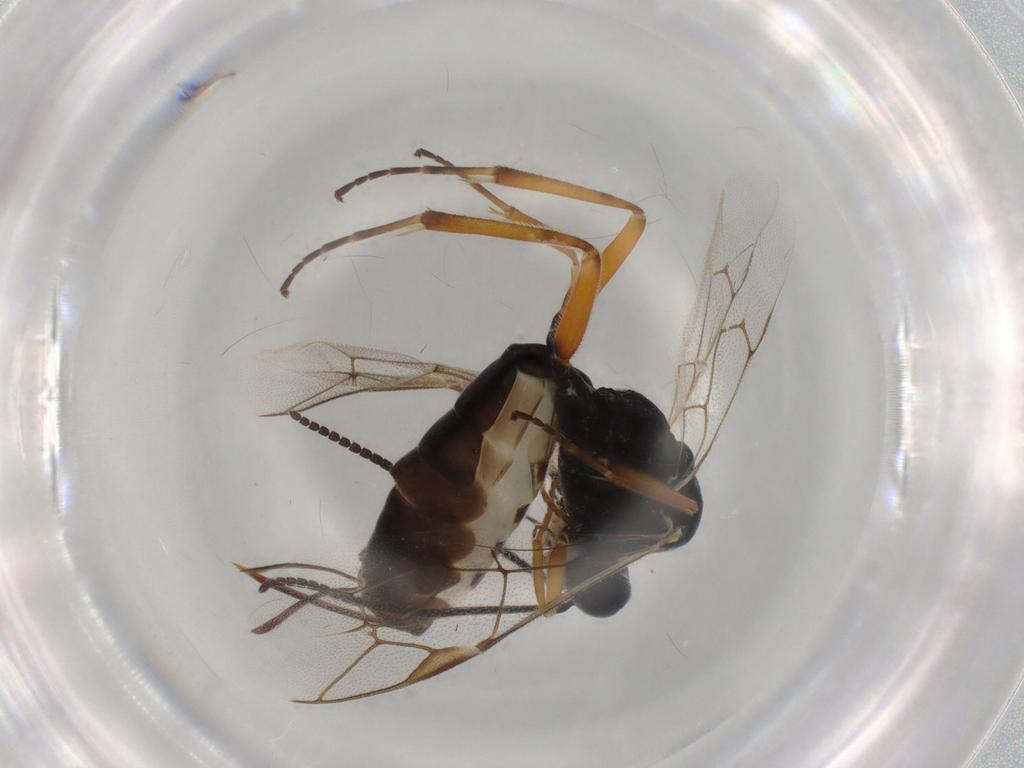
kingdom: Animalia
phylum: Arthropoda
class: Insecta
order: Hymenoptera
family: Ichneumonidae
